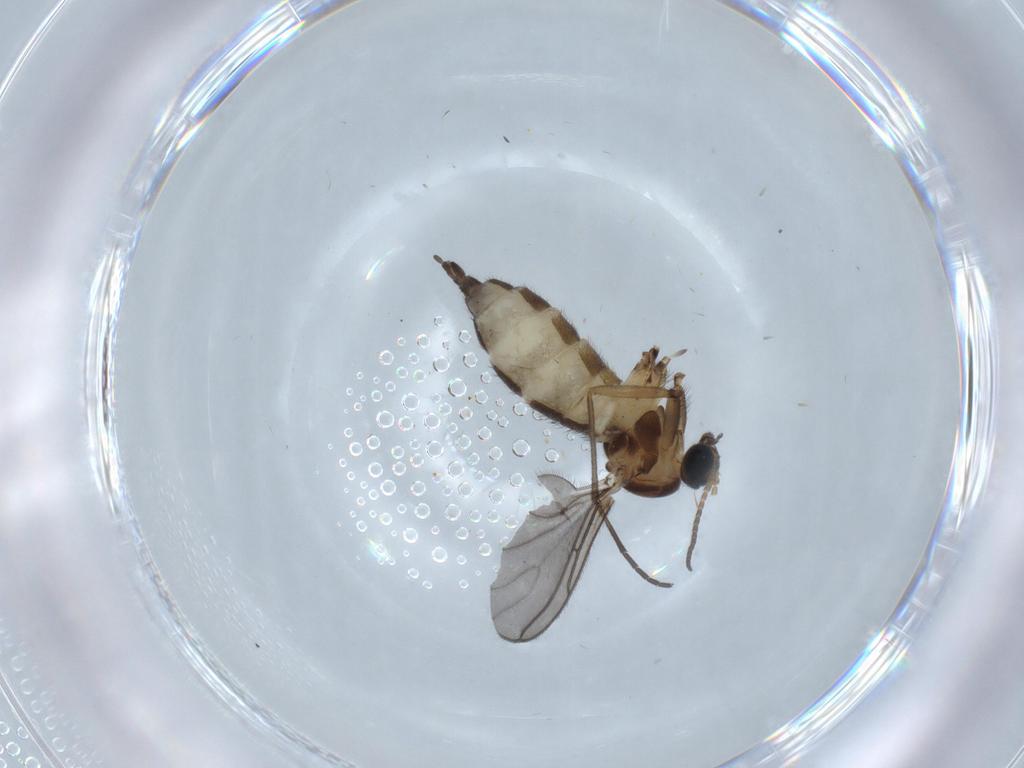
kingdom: Animalia
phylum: Arthropoda
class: Insecta
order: Diptera
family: Sciaridae
